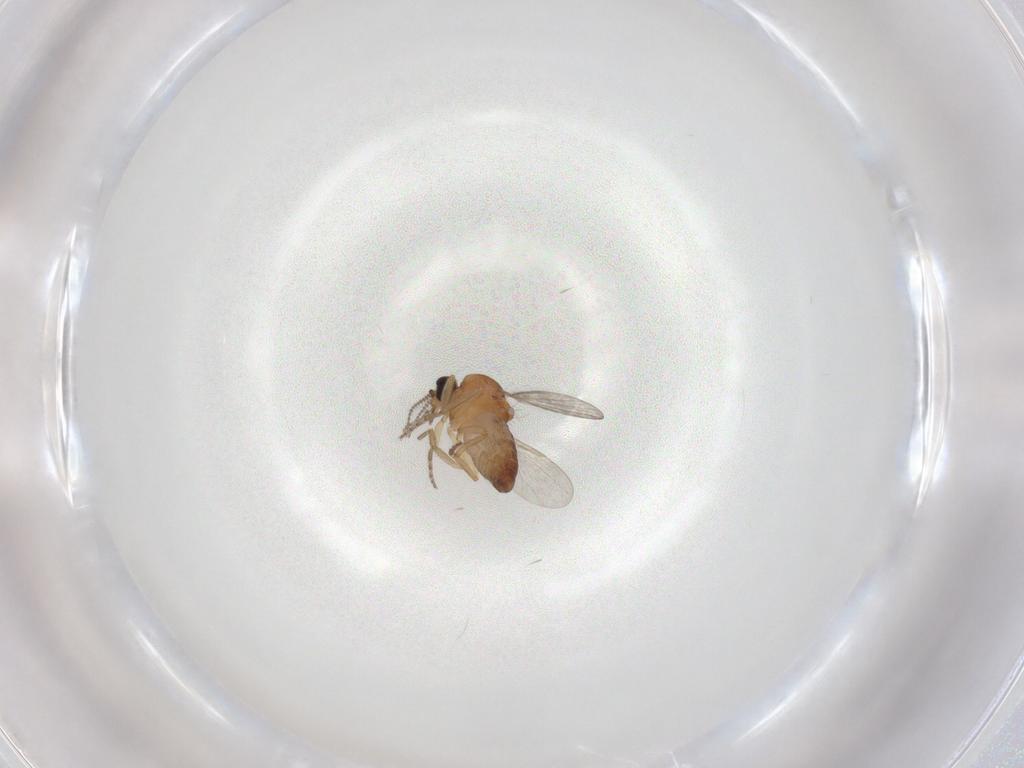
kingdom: Animalia
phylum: Arthropoda
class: Insecta
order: Diptera
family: Ceratopogonidae
